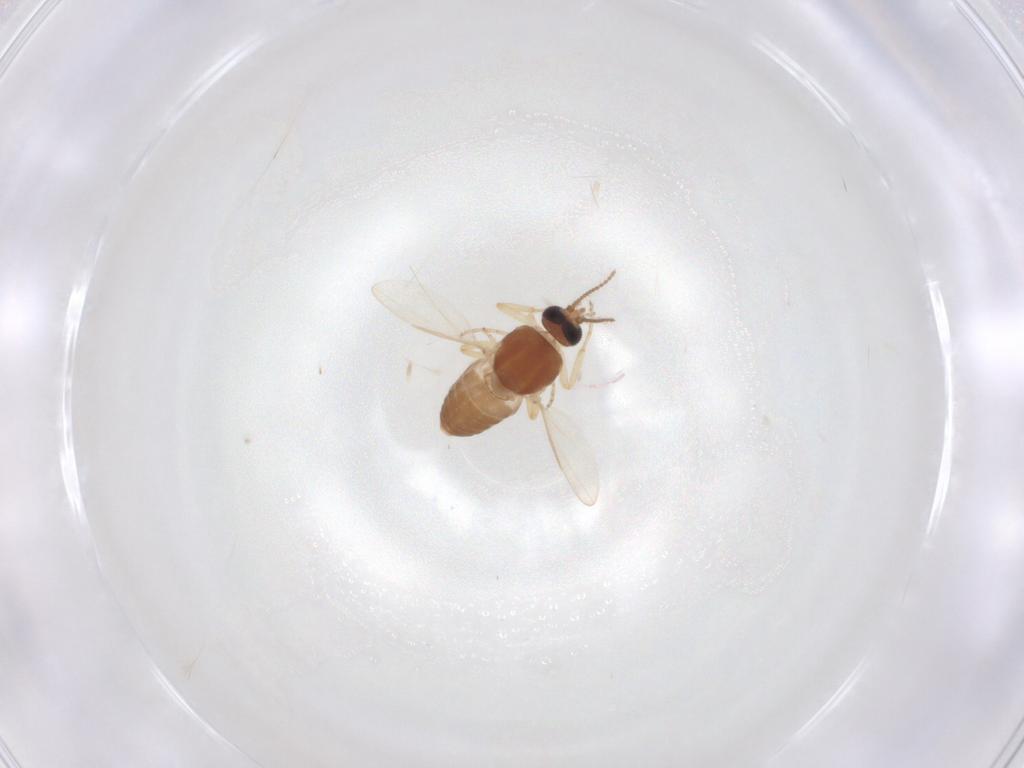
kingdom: Animalia
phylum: Arthropoda
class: Insecta
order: Diptera
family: Chloropidae
